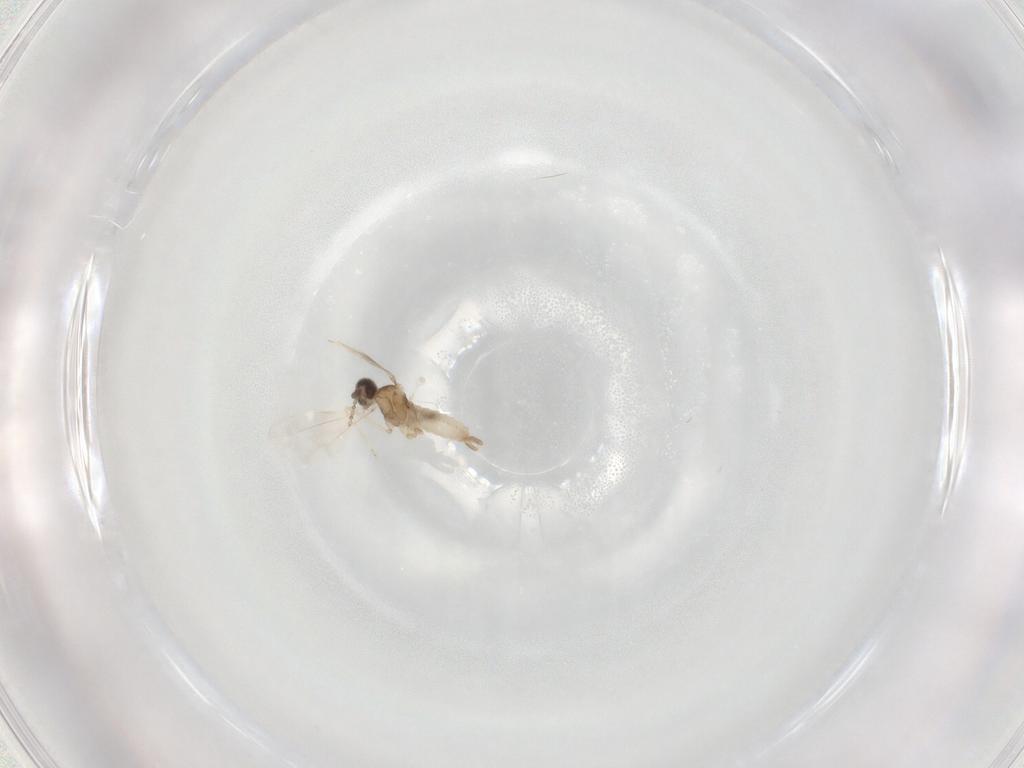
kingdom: Animalia
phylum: Arthropoda
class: Insecta
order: Diptera
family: Cecidomyiidae
